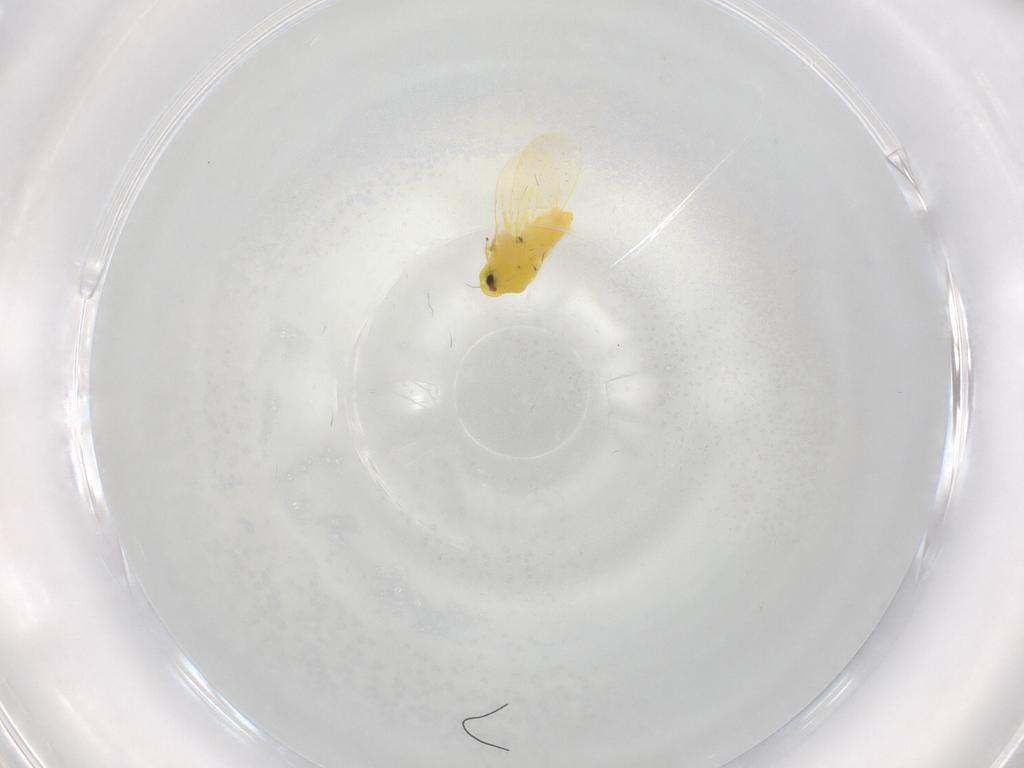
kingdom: Animalia
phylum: Arthropoda
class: Insecta
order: Hemiptera
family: Aleyrodidae
